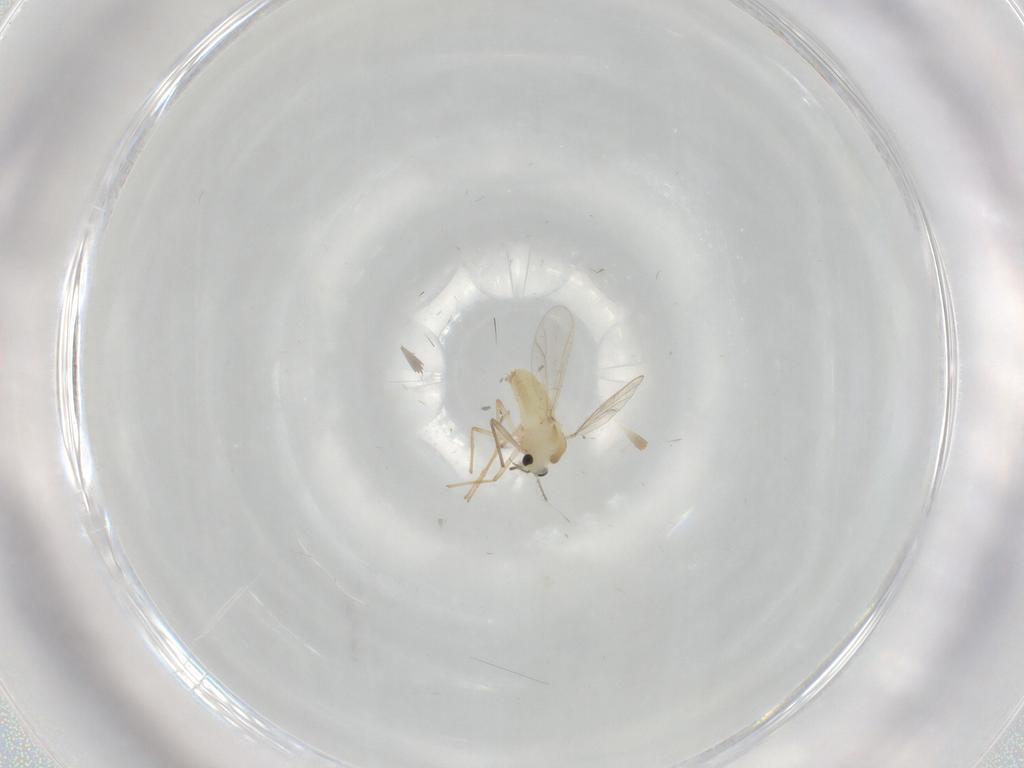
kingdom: Animalia
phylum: Arthropoda
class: Insecta
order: Diptera
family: Chironomidae
